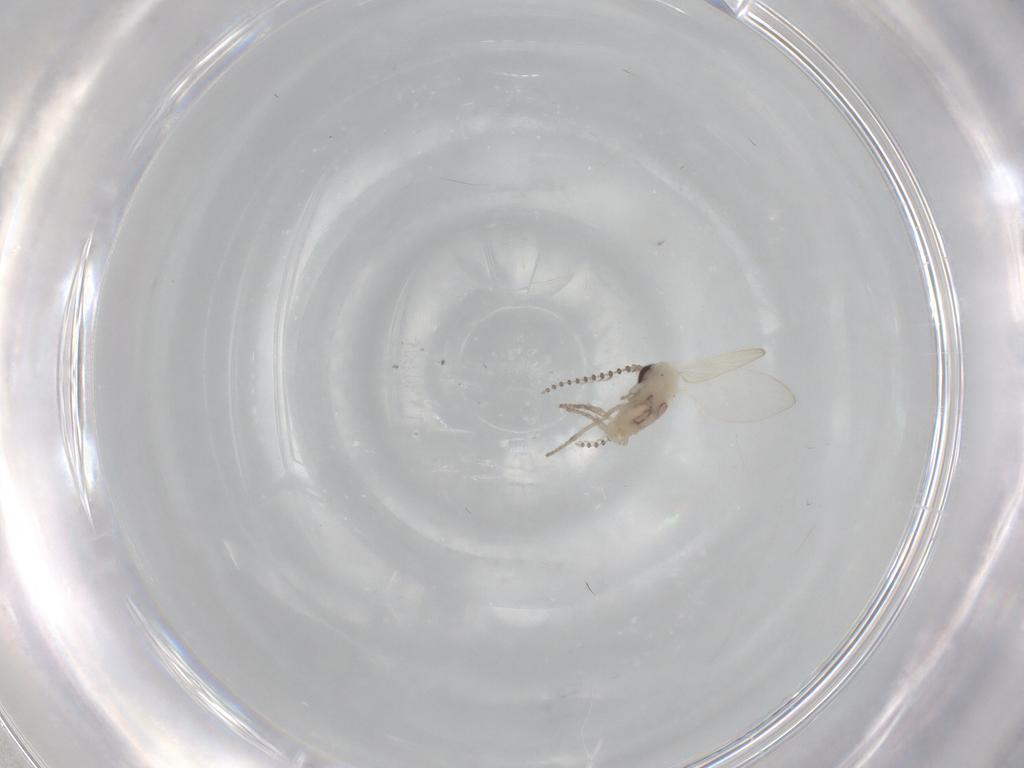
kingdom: Animalia
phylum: Arthropoda
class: Insecta
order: Diptera
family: Psychodidae
